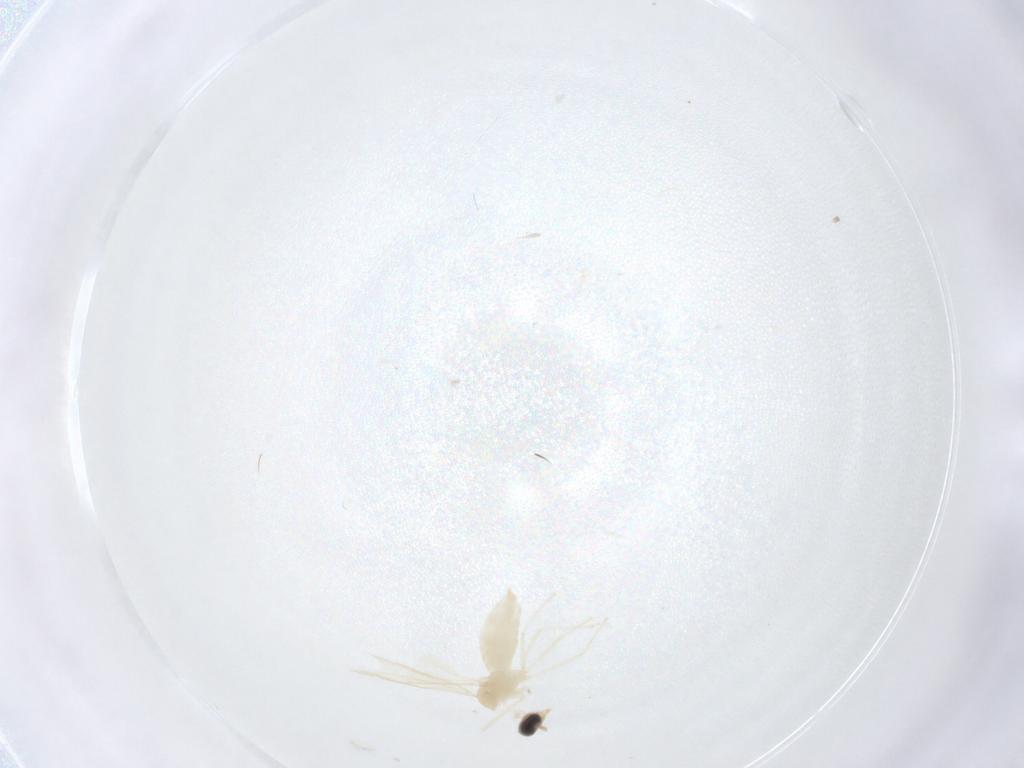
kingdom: Animalia
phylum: Arthropoda
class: Insecta
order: Diptera
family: Cecidomyiidae
